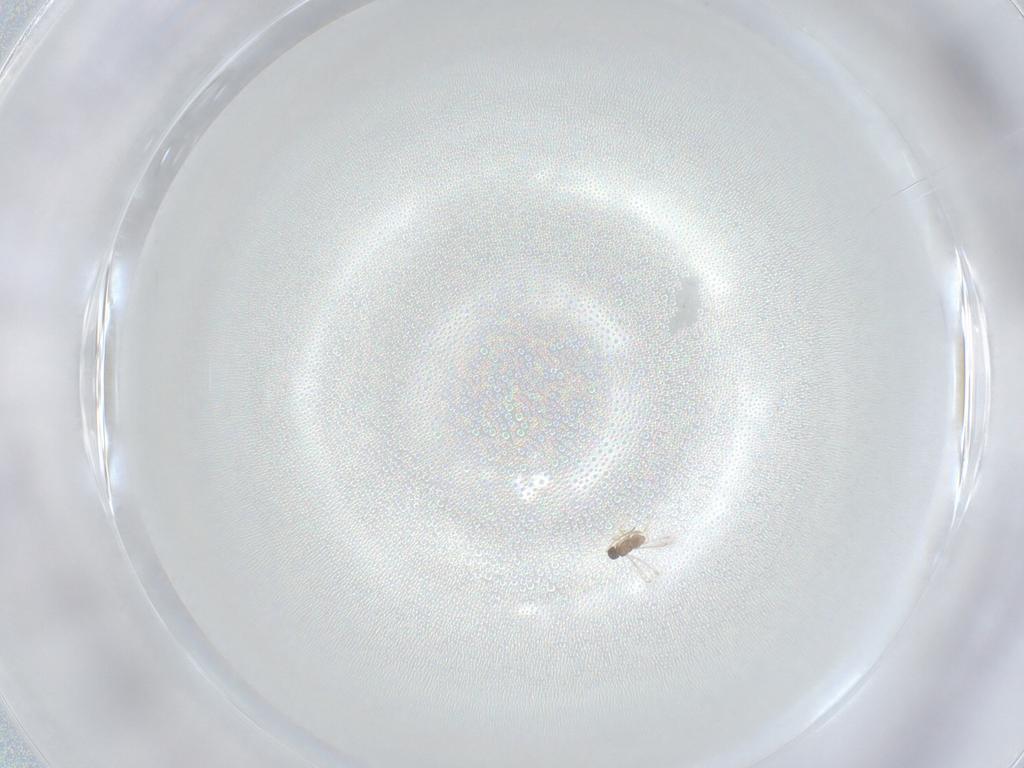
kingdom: Animalia
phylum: Arthropoda
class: Insecta
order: Hymenoptera
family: Mymaridae
